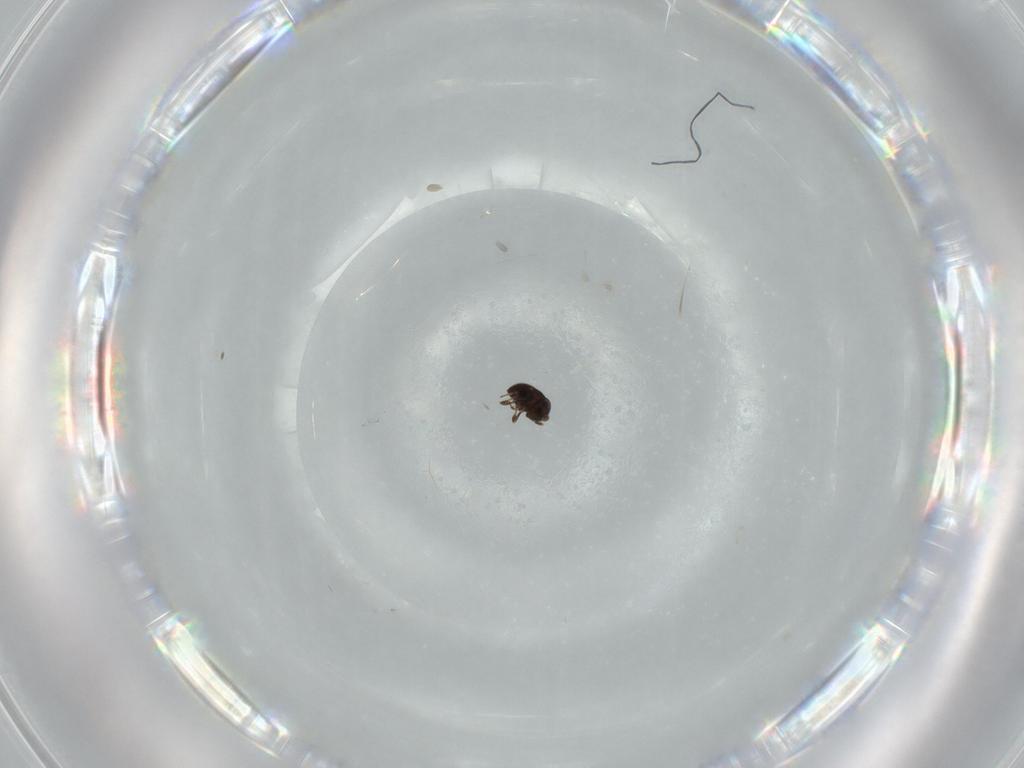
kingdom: Animalia
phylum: Arthropoda
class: Insecta
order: Hymenoptera
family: Scelionidae
